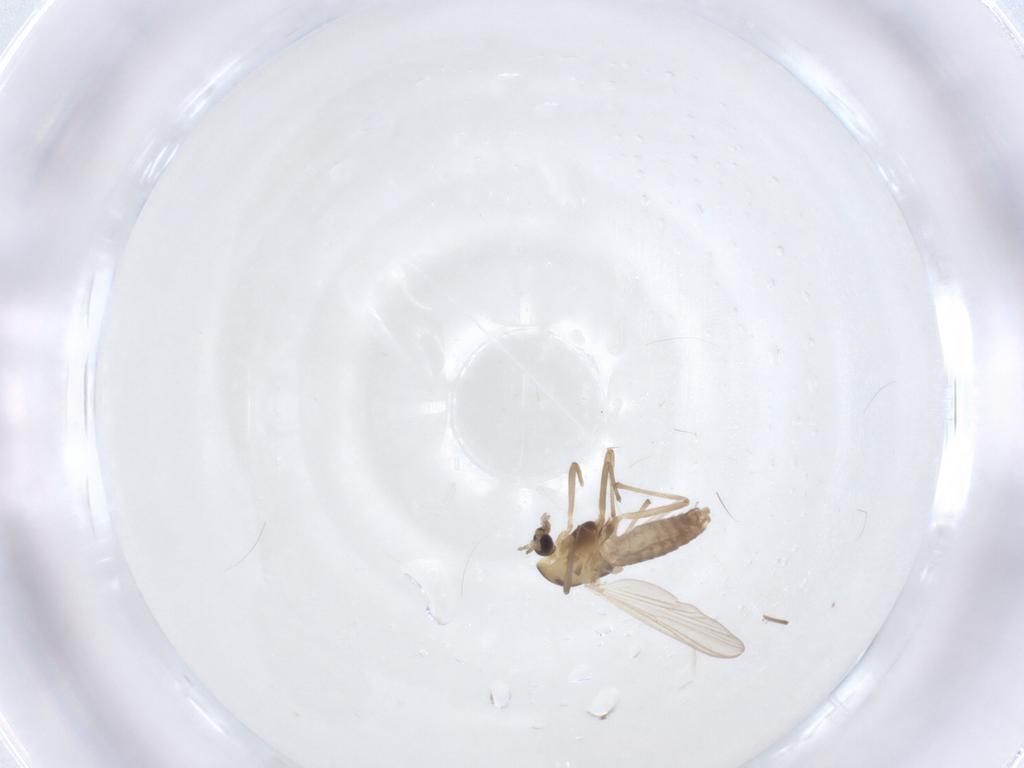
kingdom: Animalia
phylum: Arthropoda
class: Insecta
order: Diptera
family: Chironomidae
